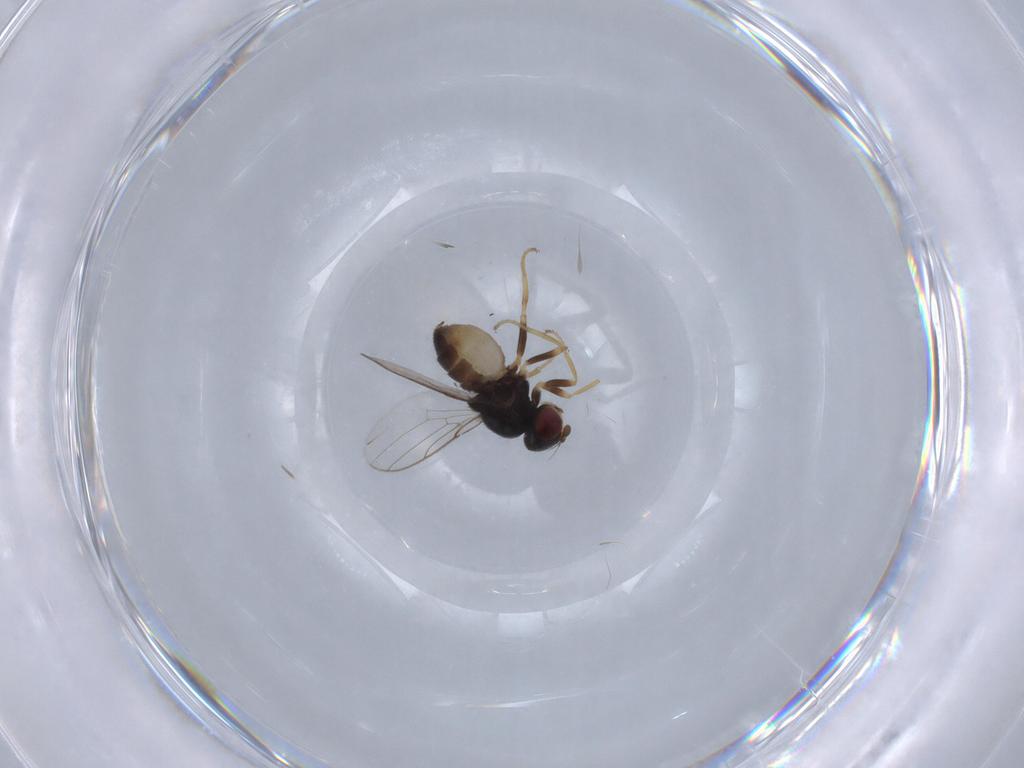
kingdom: Animalia
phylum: Arthropoda
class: Insecta
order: Diptera
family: Chloropidae
